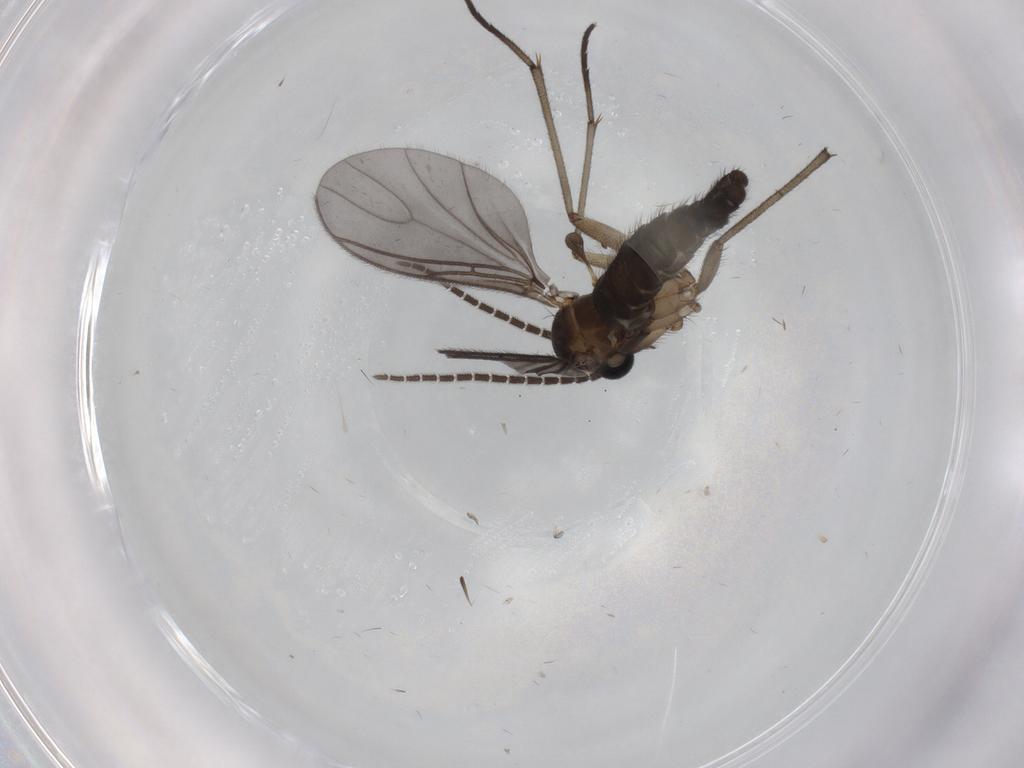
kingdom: Animalia
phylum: Arthropoda
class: Insecta
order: Diptera
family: Sciaridae
